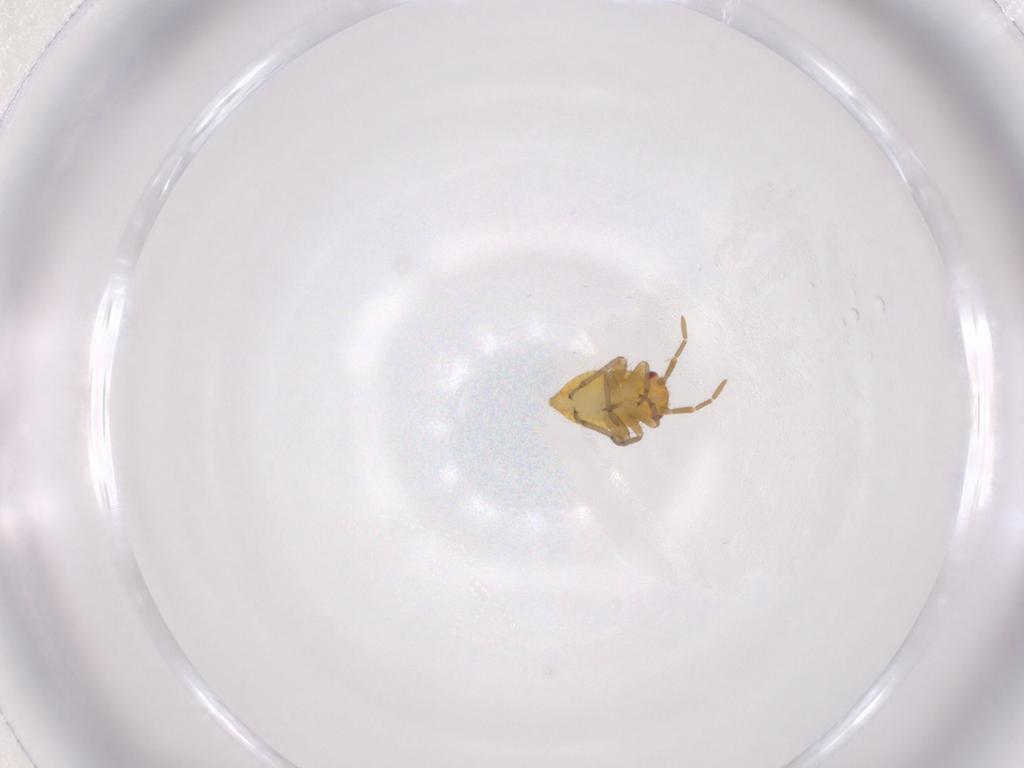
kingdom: Animalia
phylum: Arthropoda
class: Insecta
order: Hemiptera
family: Miridae
